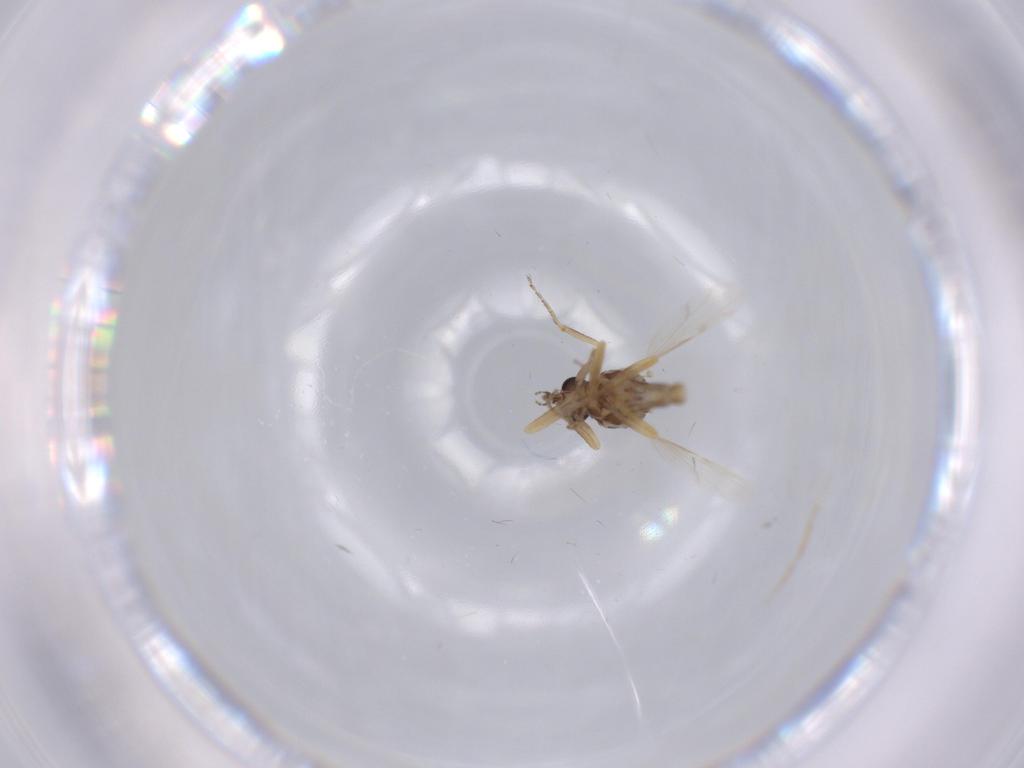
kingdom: Animalia
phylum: Arthropoda
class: Insecta
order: Diptera
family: Ceratopogonidae
